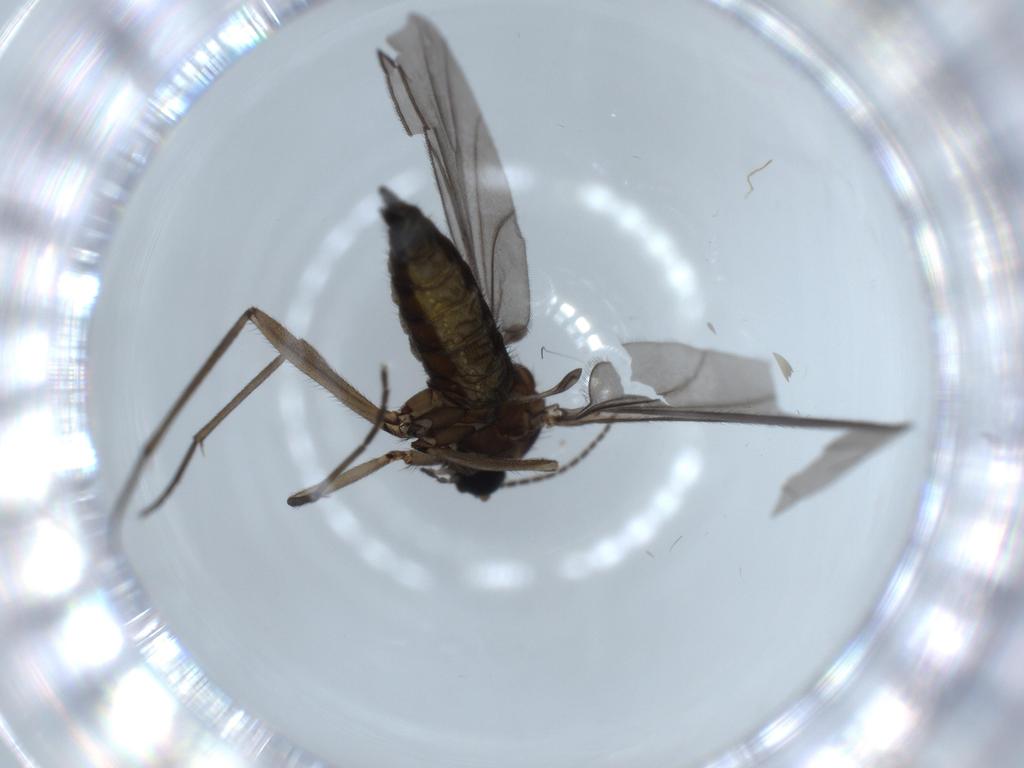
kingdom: Animalia
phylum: Arthropoda
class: Insecta
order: Diptera
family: Sciaridae
